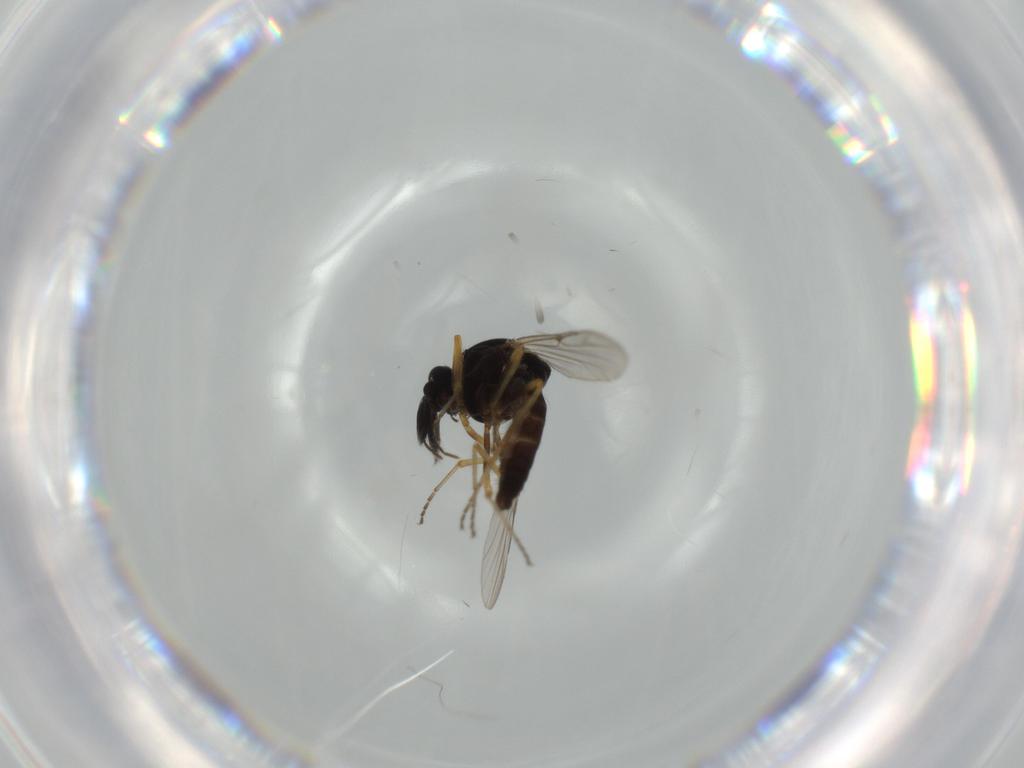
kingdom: Animalia
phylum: Arthropoda
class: Insecta
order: Diptera
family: Ceratopogonidae
